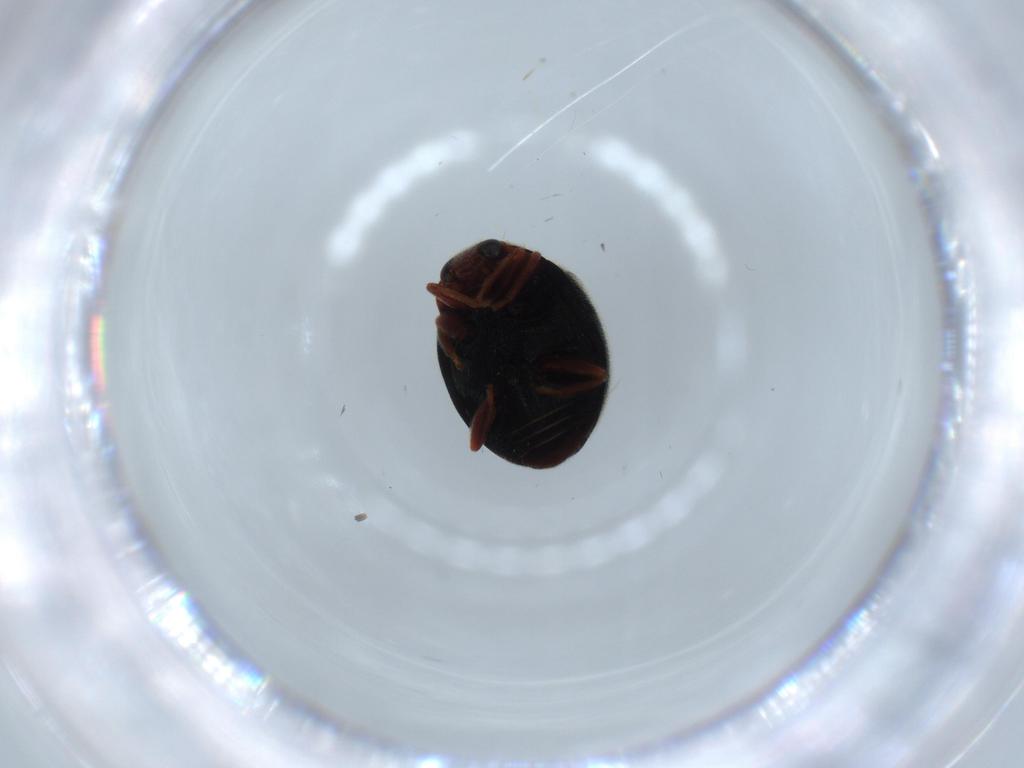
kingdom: Animalia
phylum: Arthropoda
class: Insecta
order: Coleoptera
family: Coccinellidae
